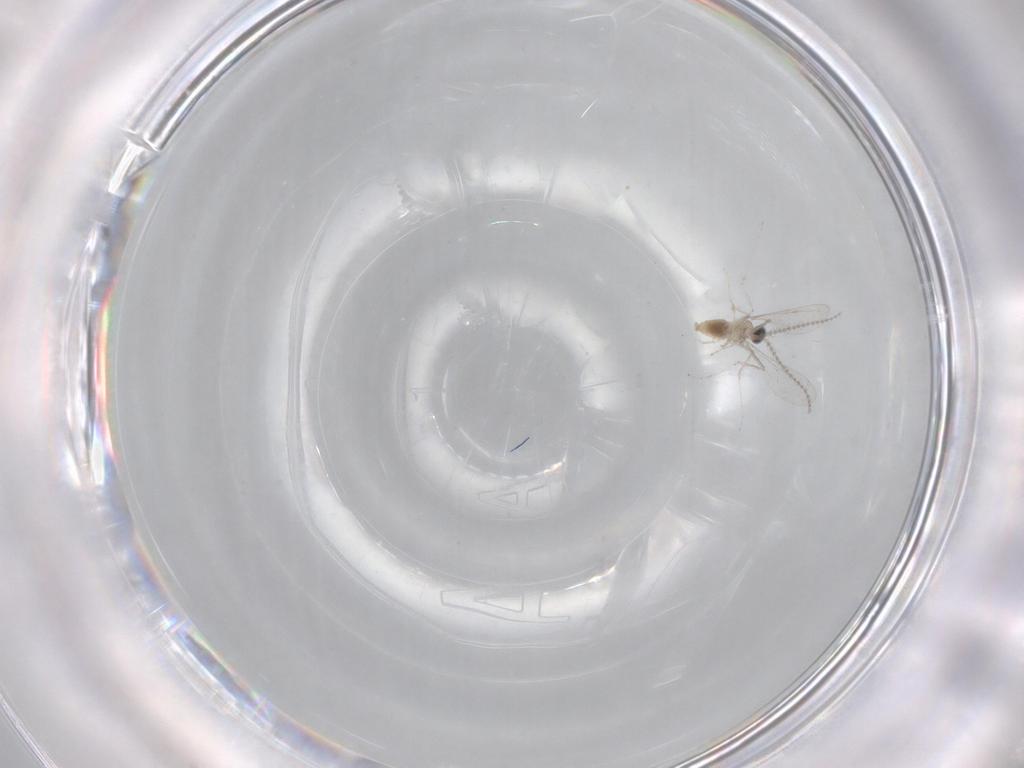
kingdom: Animalia
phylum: Arthropoda
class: Insecta
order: Diptera
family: Cecidomyiidae
